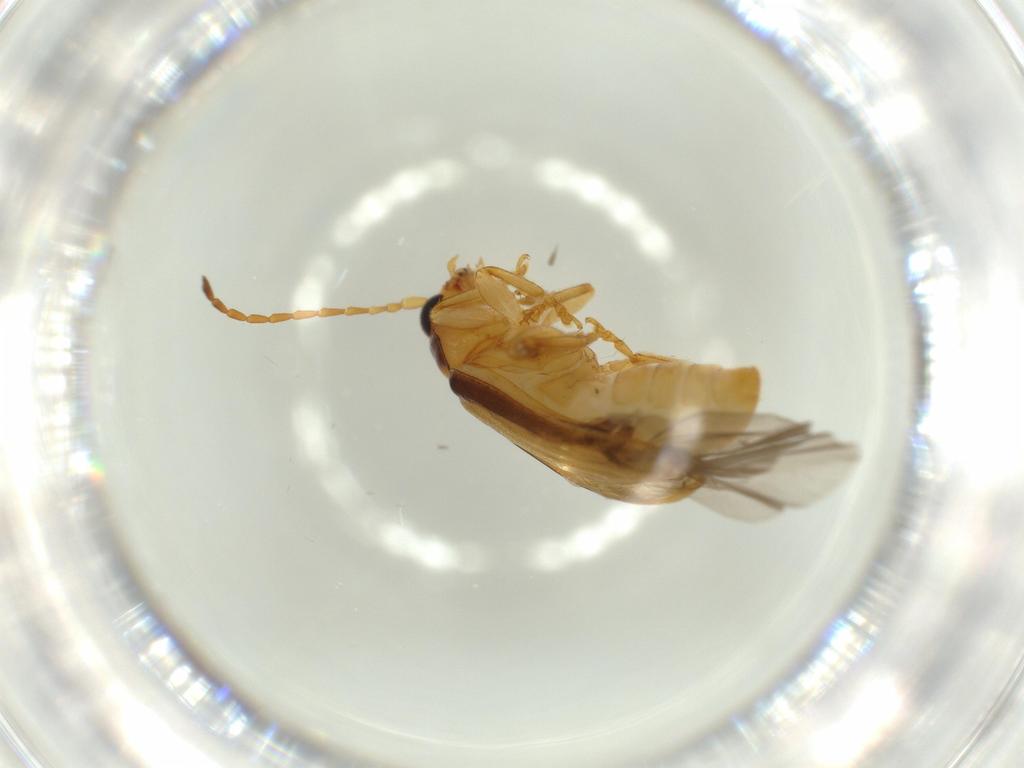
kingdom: Animalia
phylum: Arthropoda
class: Insecta
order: Coleoptera
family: Chrysomelidae
